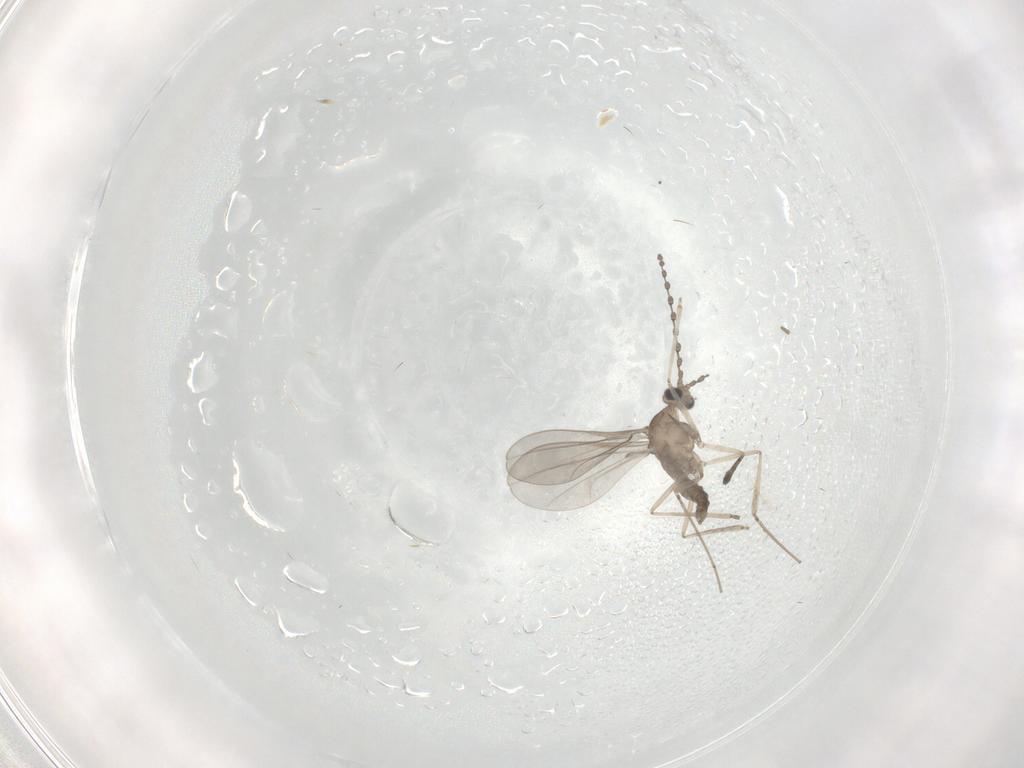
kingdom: Animalia
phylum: Arthropoda
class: Insecta
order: Diptera
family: Cecidomyiidae
